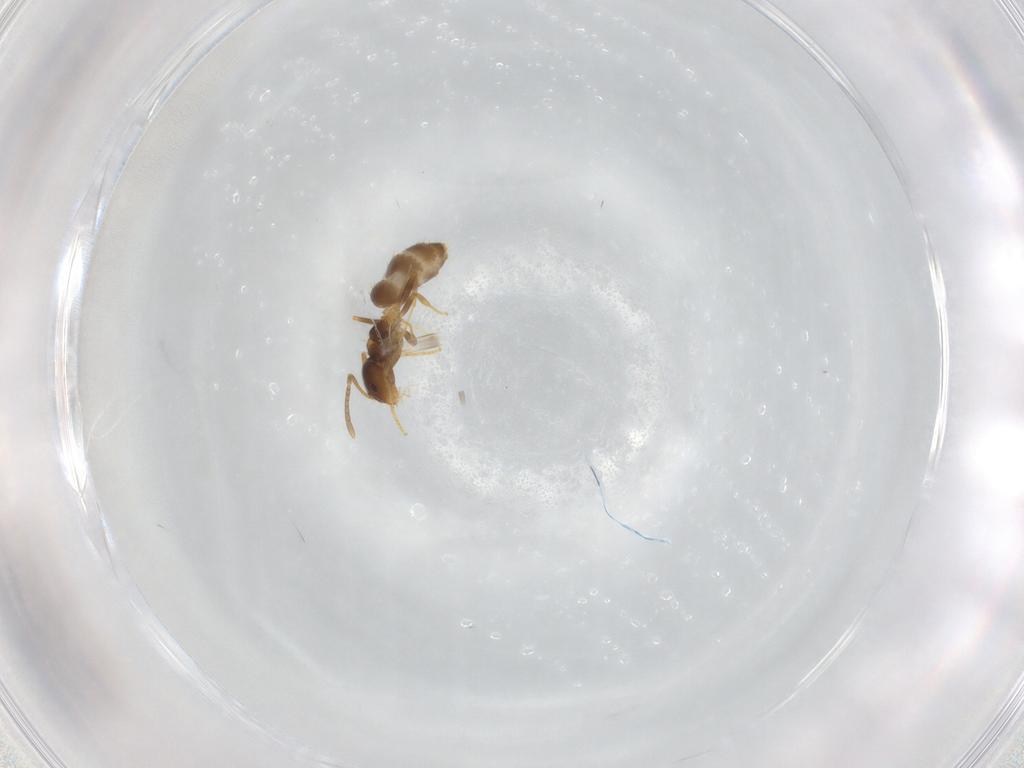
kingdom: Animalia
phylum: Arthropoda
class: Insecta
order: Hymenoptera
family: Formicidae
